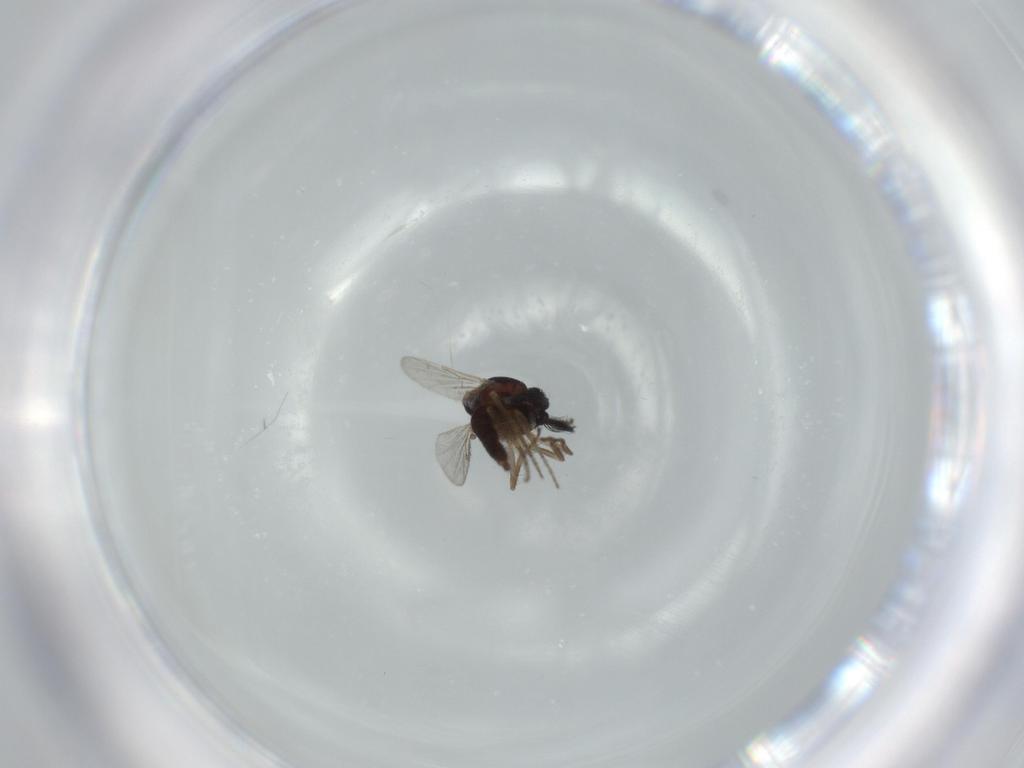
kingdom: Animalia
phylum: Arthropoda
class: Insecta
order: Diptera
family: Ceratopogonidae
